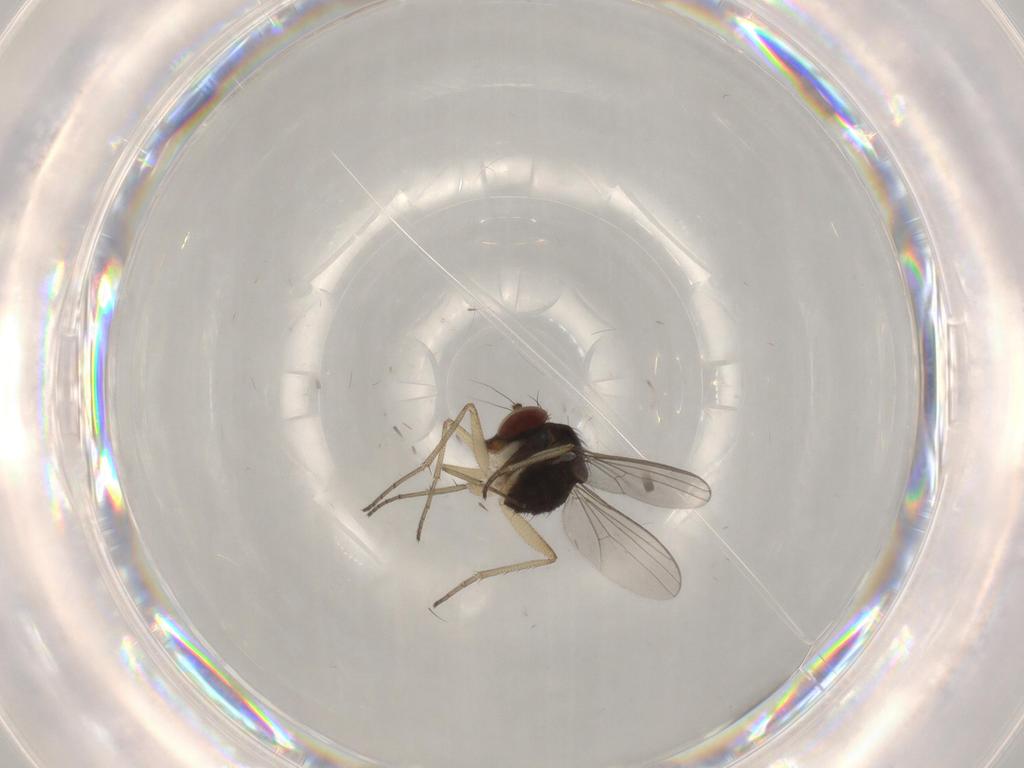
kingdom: Animalia
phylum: Arthropoda
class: Insecta
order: Diptera
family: Dolichopodidae
